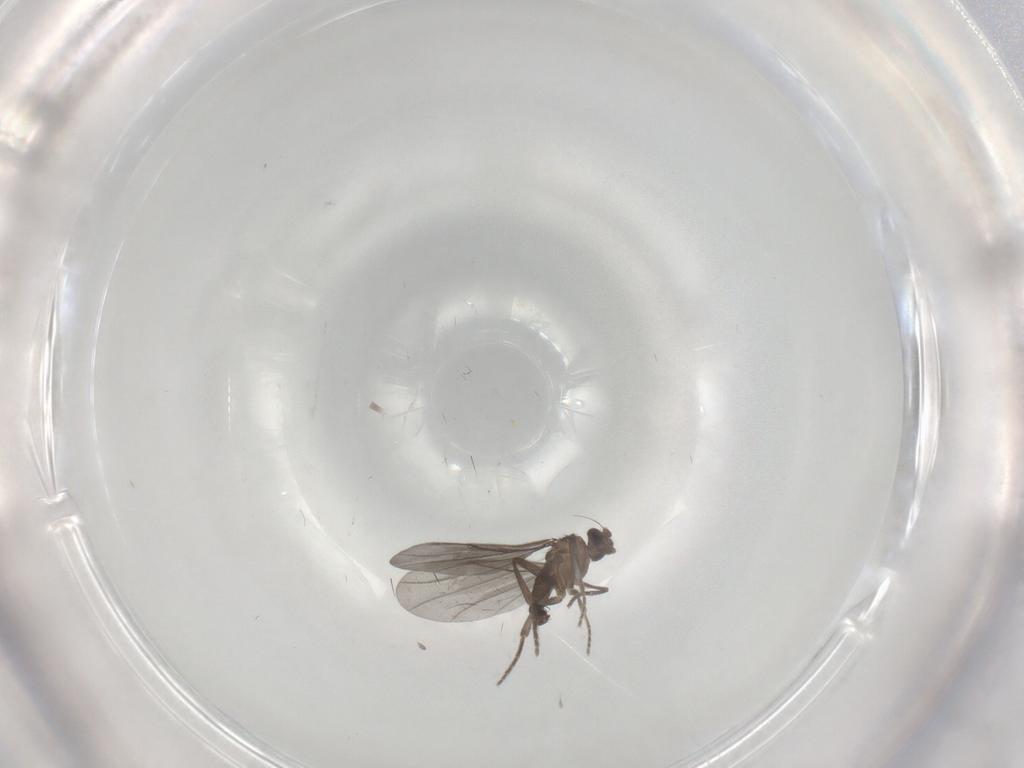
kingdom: Animalia
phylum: Arthropoda
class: Insecta
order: Diptera
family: Phoridae
